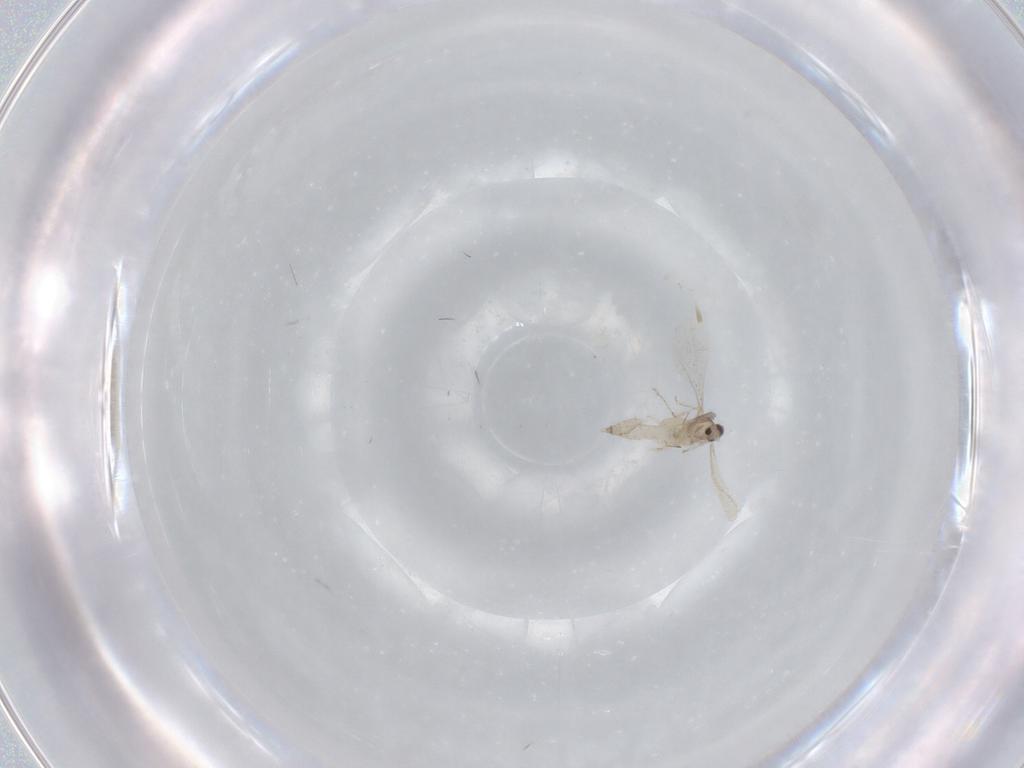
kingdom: Animalia
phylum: Arthropoda
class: Insecta
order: Diptera
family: Cecidomyiidae
